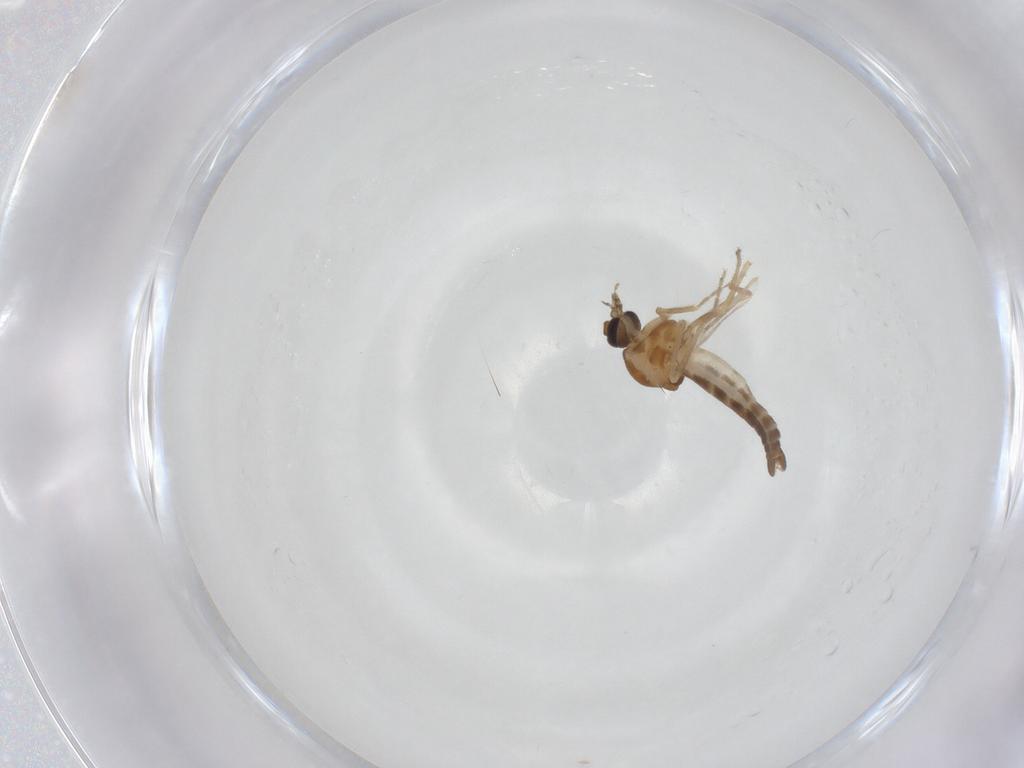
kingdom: Animalia
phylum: Arthropoda
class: Insecta
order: Diptera
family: Ceratopogonidae
